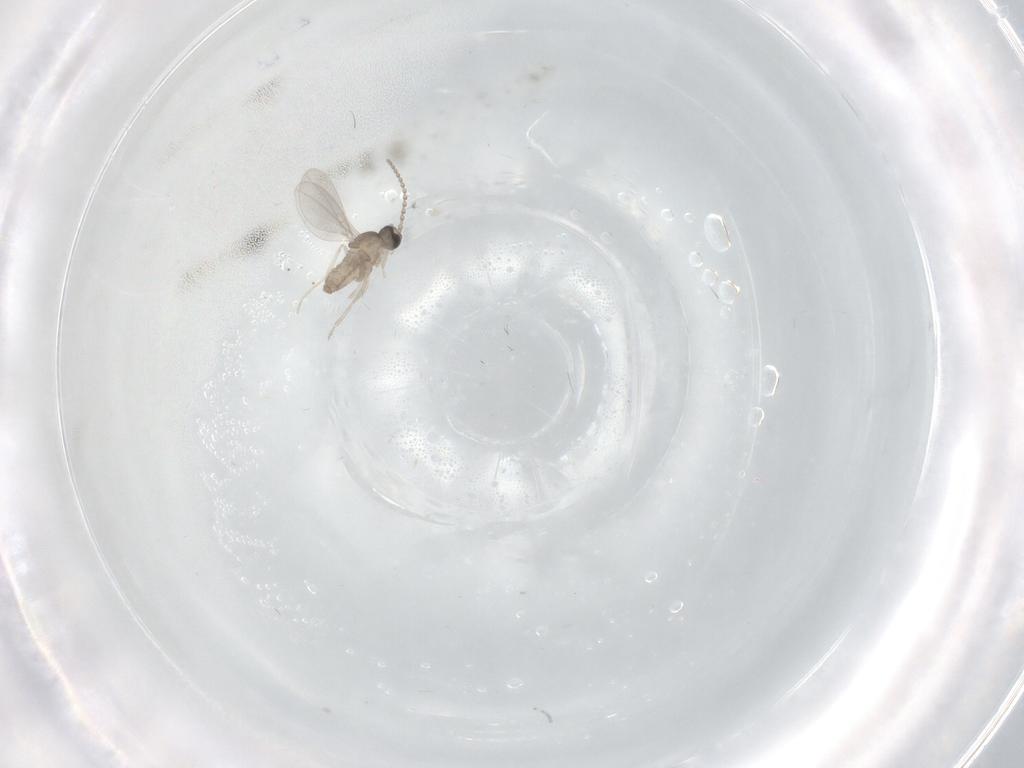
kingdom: Animalia
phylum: Arthropoda
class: Insecta
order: Diptera
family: Cecidomyiidae
